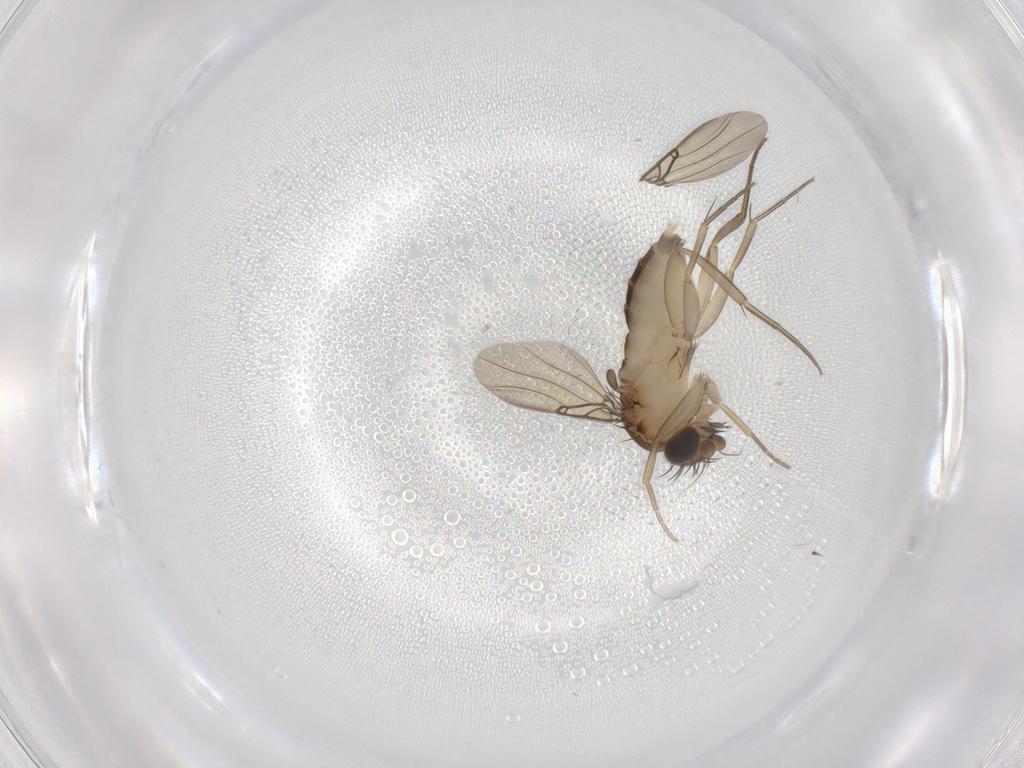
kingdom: Animalia
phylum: Arthropoda
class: Insecta
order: Diptera
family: Phoridae
